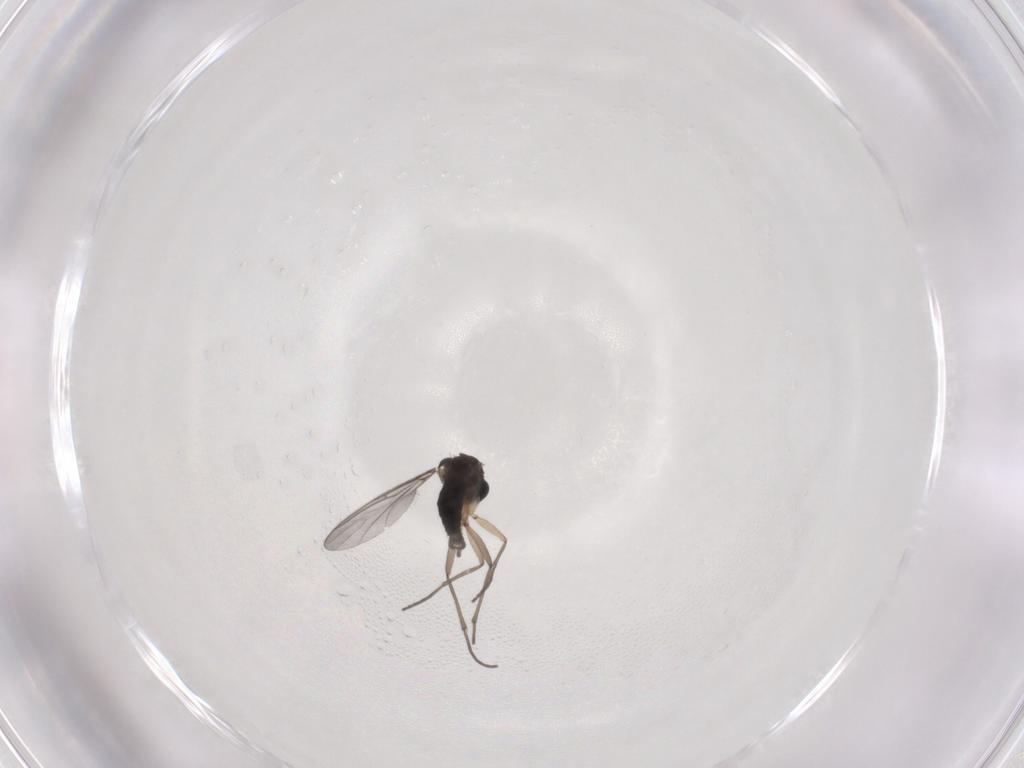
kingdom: Animalia
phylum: Arthropoda
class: Insecta
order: Diptera
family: Sciaridae
